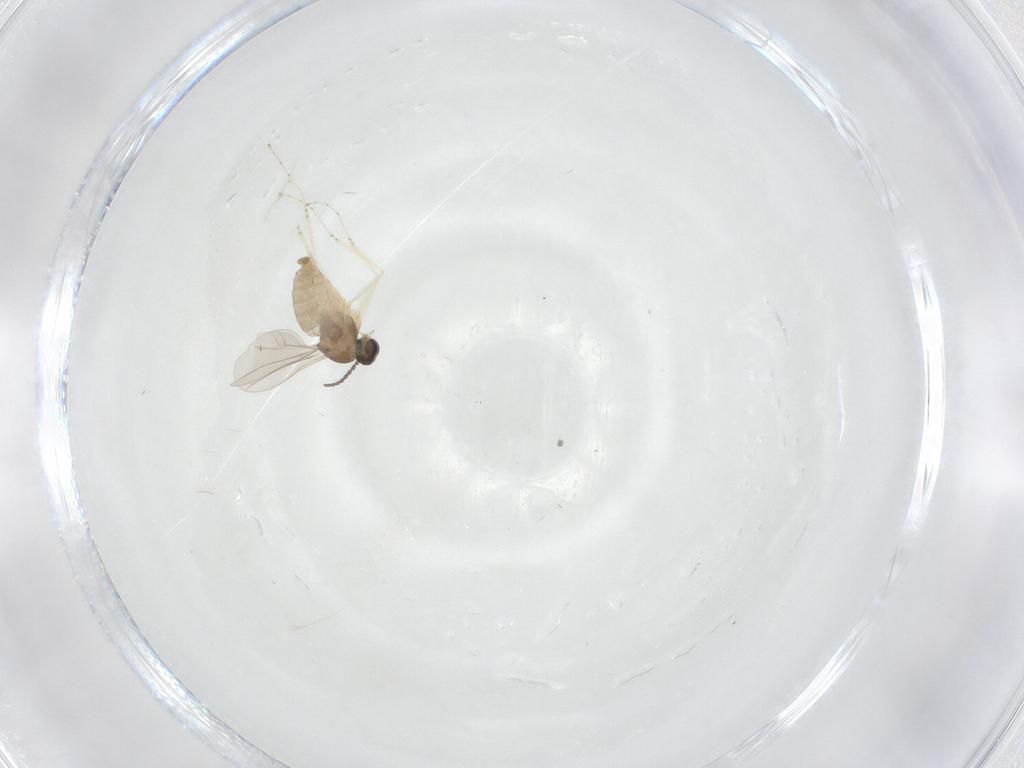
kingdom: Animalia
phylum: Arthropoda
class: Insecta
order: Diptera
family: Cecidomyiidae
